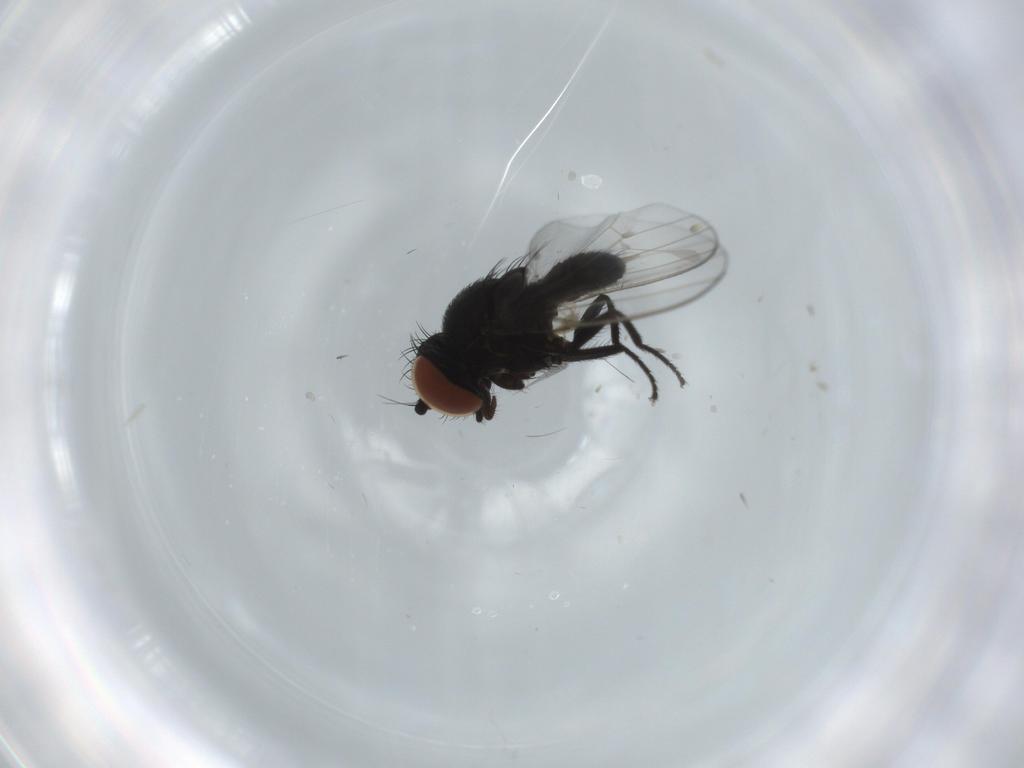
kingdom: Animalia
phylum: Arthropoda
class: Insecta
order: Diptera
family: Milichiidae
